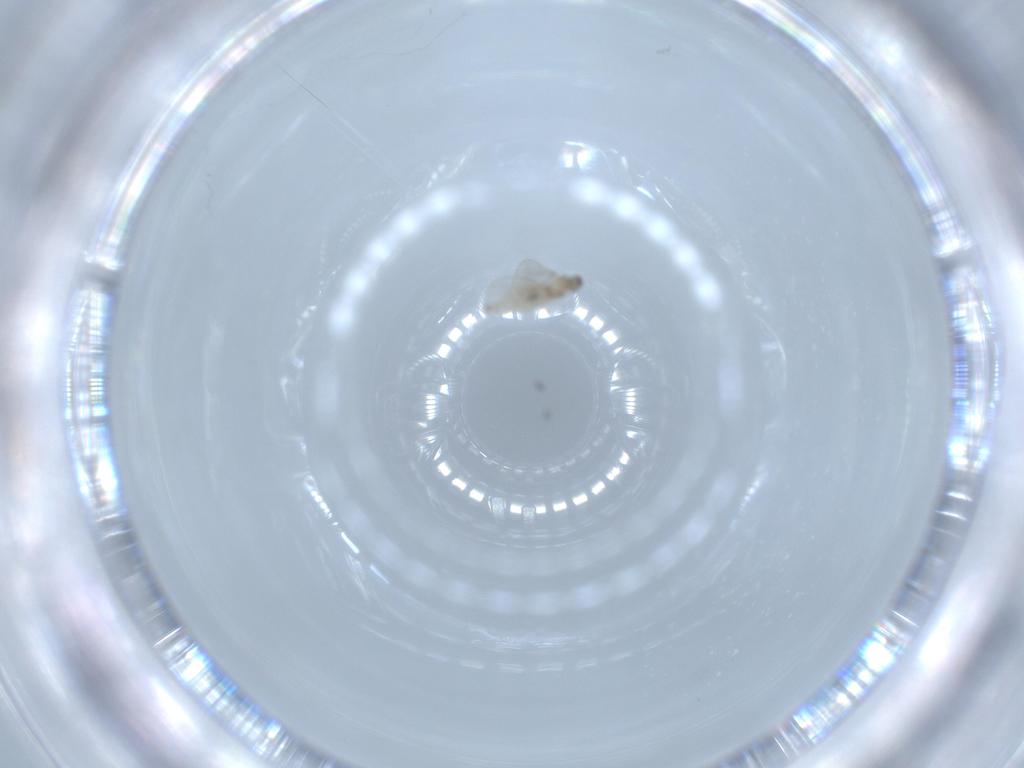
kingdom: Animalia
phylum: Arthropoda
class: Insecta
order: Diptera
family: Cecidomyiidae
